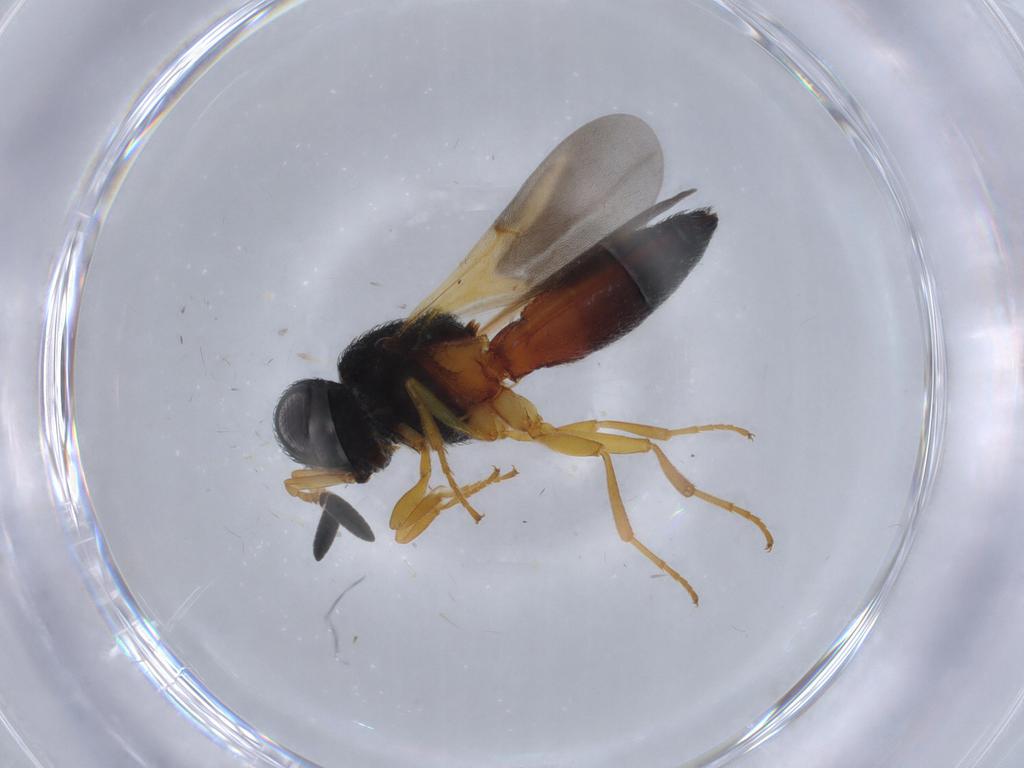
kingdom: Animalia
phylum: Arthropoda
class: Insecta
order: Hymenoptera
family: Scelionidae
